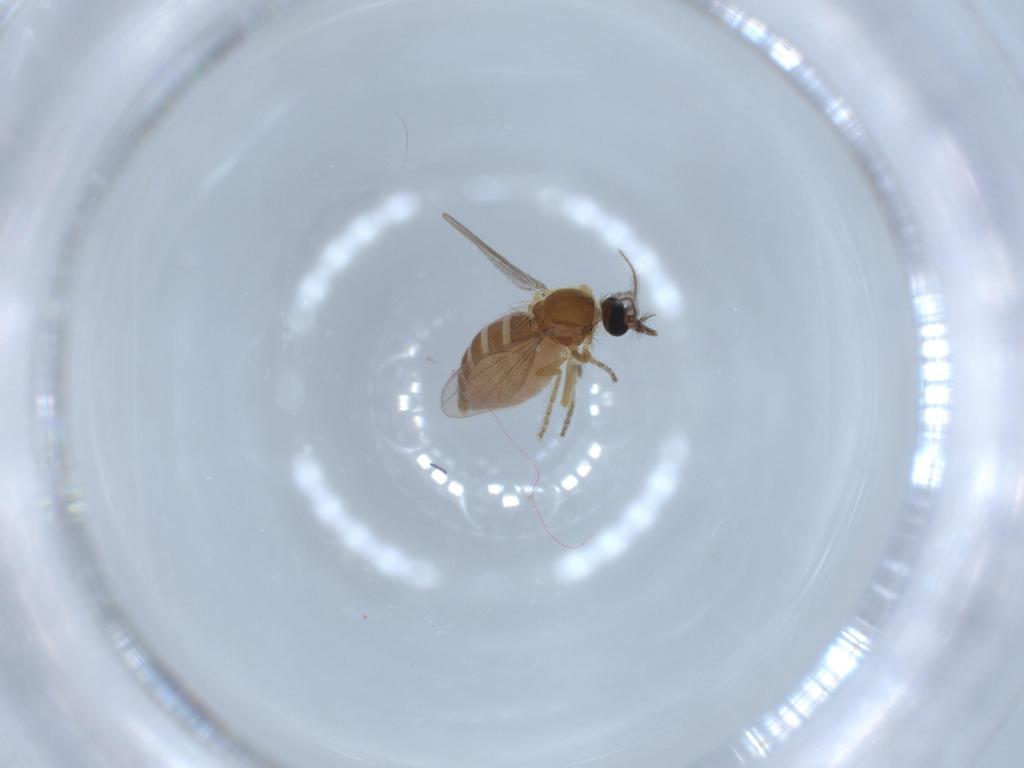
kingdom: Animalia
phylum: Arthropoda
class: Insecta
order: Diptera
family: Ceratopogonidae
